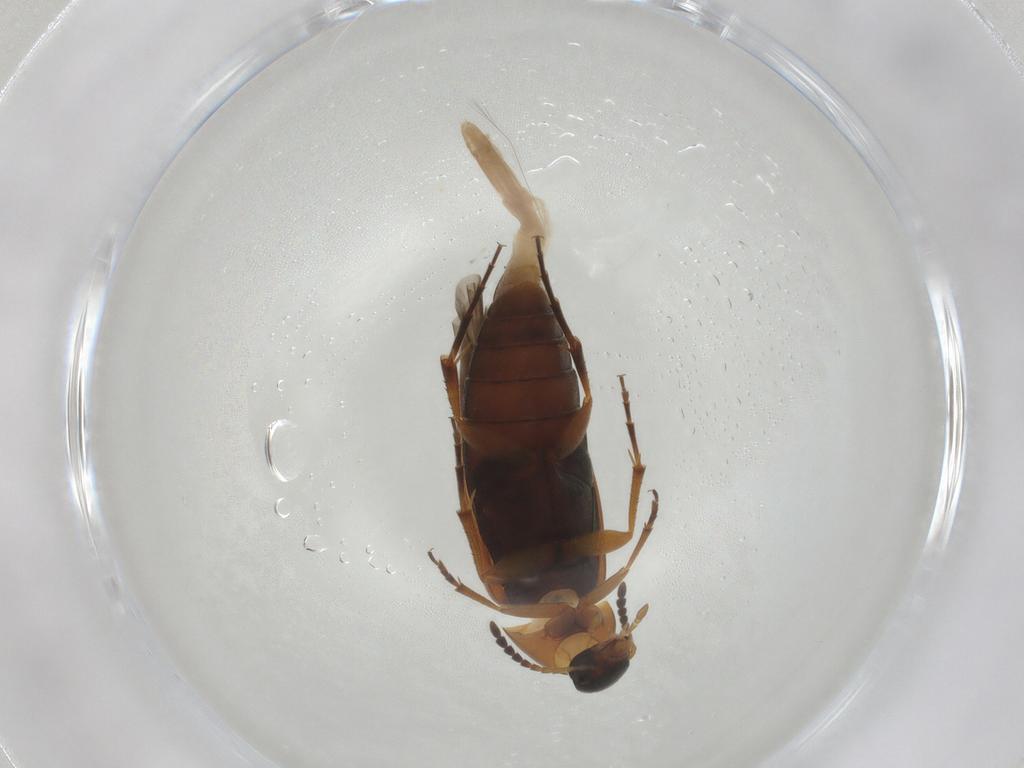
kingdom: Animalia
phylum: Arthropoda
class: Insecta
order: Coleoptera
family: Scraptiidae
